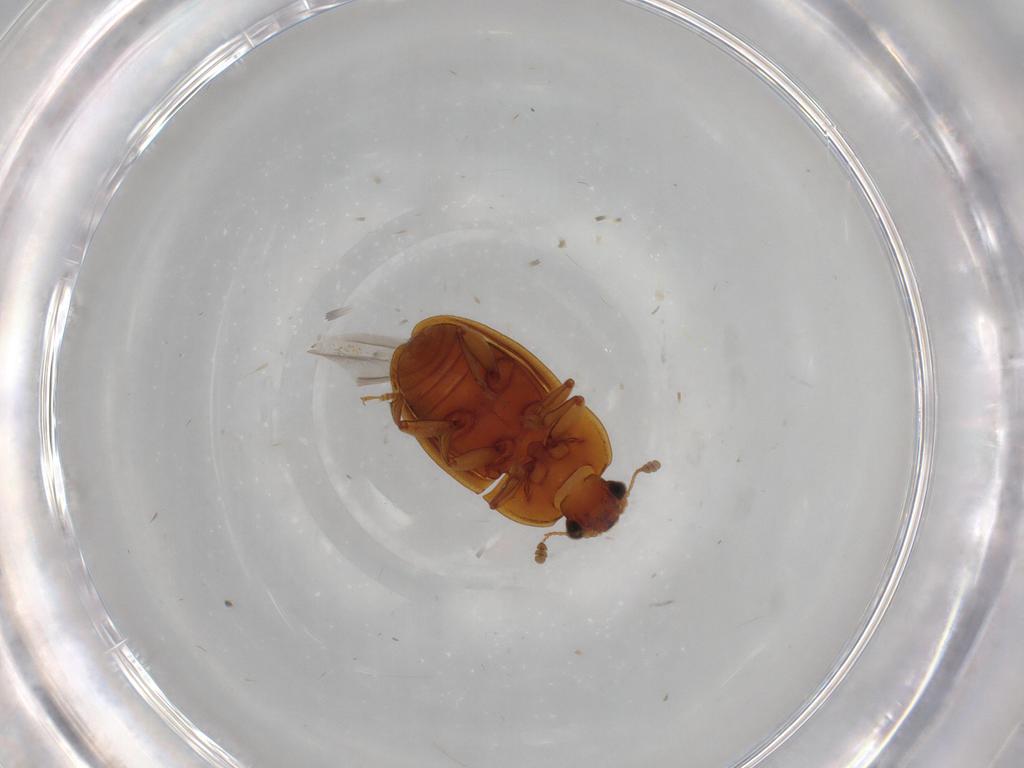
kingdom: Animalia
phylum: Arthropoda
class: Insecta
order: Coleoptera
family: Nitidulidae
